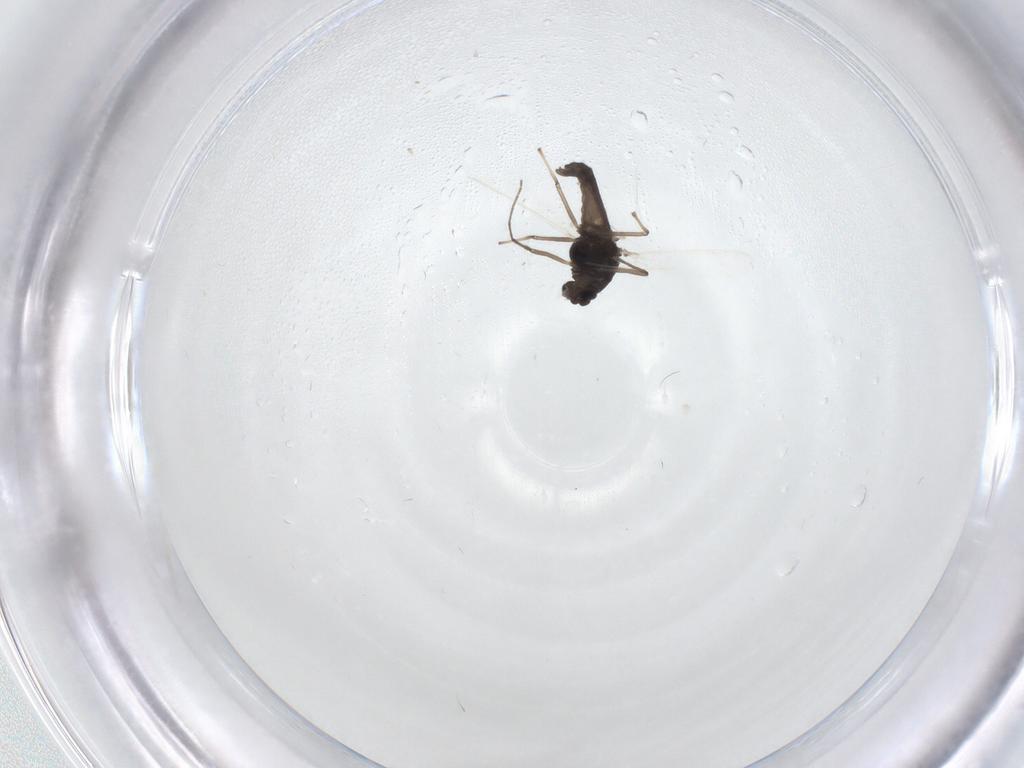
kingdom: Animalia
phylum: Arthropoda
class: Insecta
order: Diptera
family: Chironomidae
